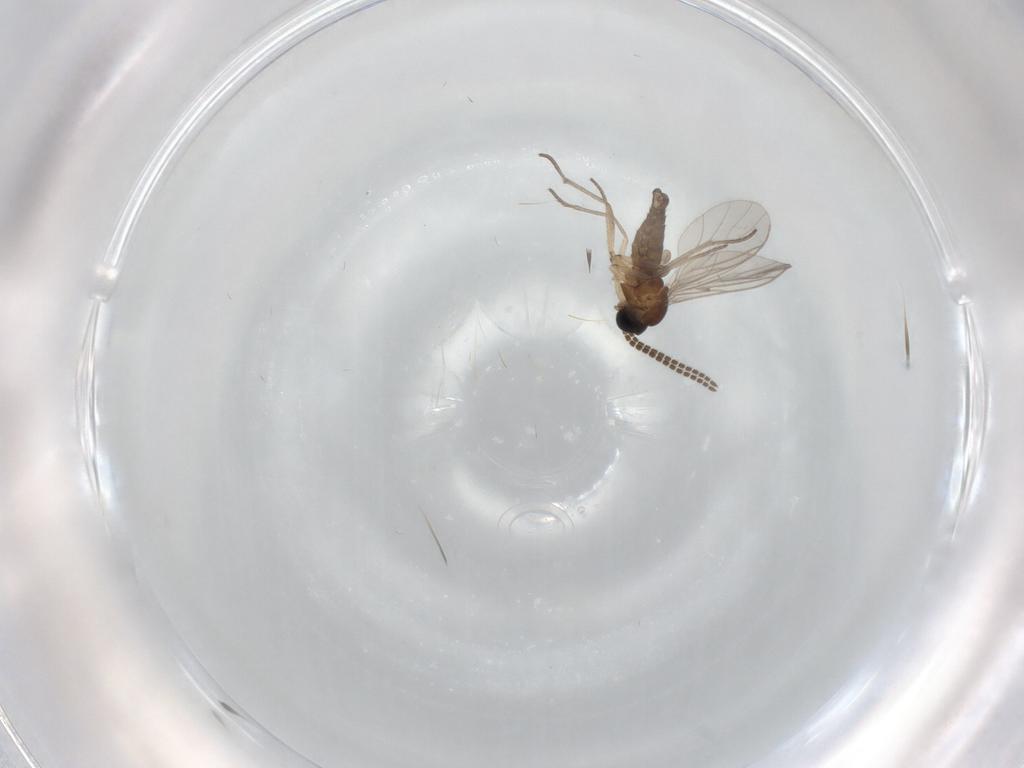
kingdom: Animalia
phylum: Arthropoda
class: Insecta
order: Diptera
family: Sciaridae
